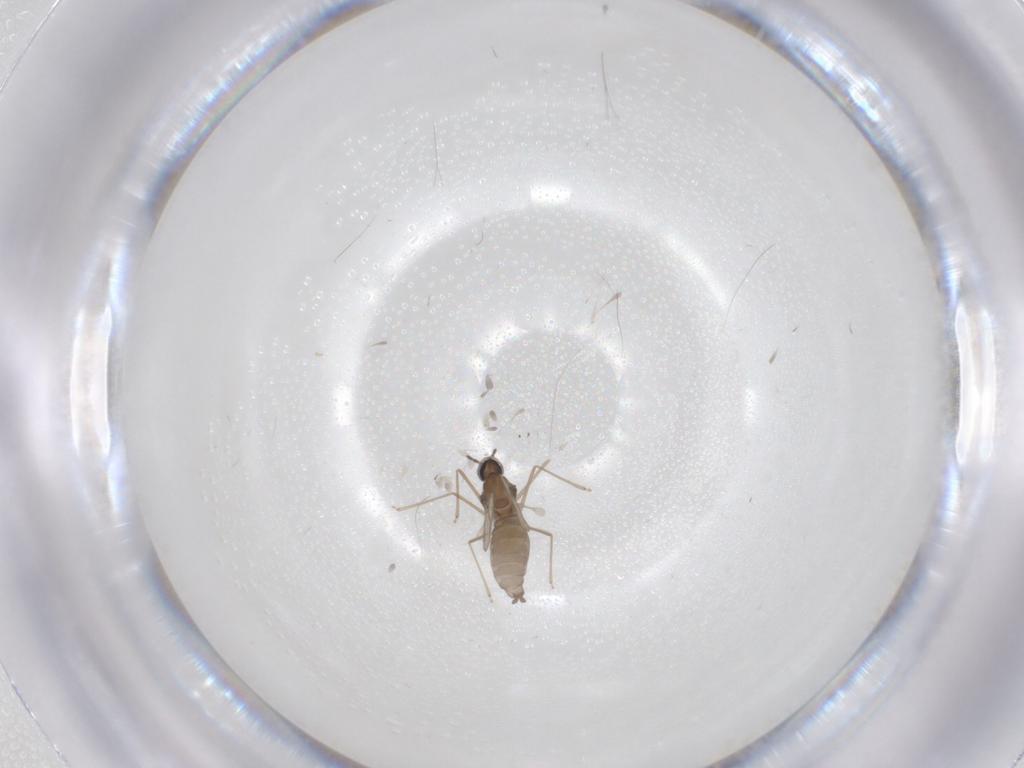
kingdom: Animalia
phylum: Arthropoda
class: Insecta
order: Diptera
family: Cecidomyiidae
